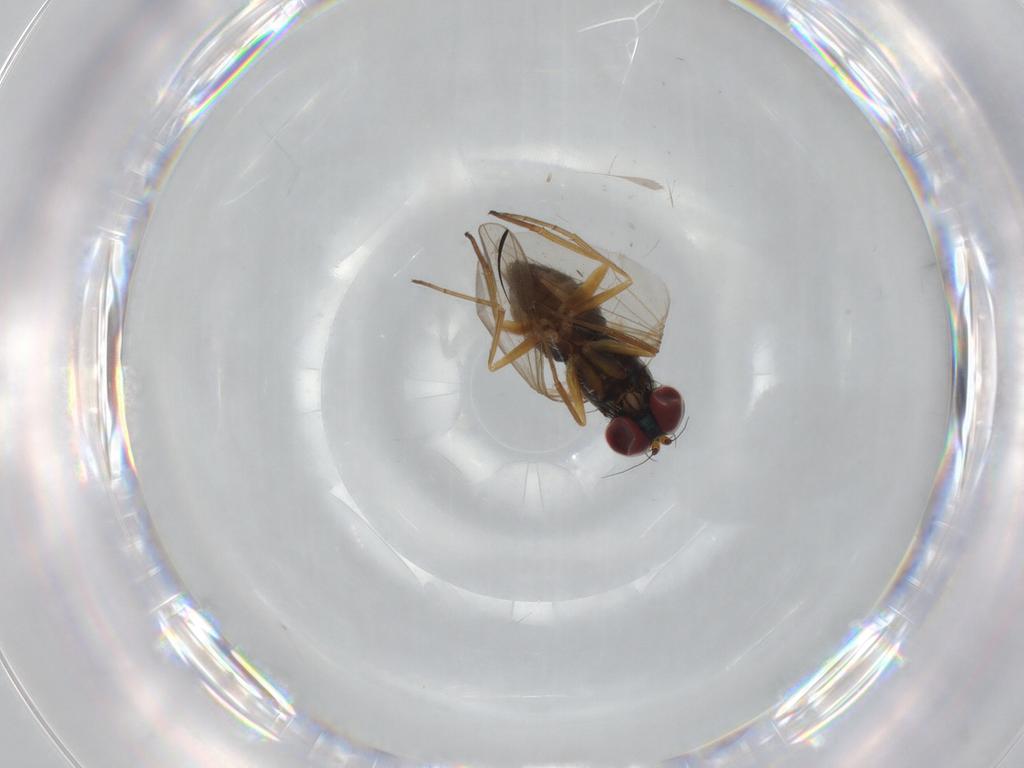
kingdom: Animalia
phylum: Arthropoda
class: Insecta
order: Diptera
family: Dolichopodidae
